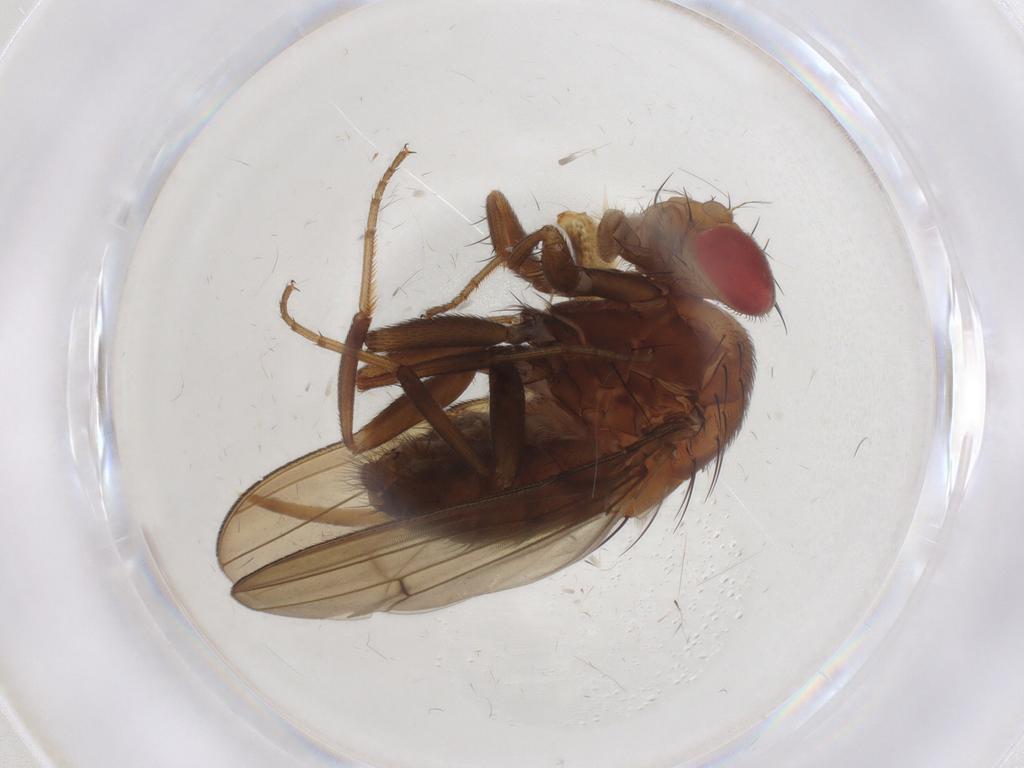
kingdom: Animalia
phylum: Arthropoda
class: Insecta
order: Diptera
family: Drosophilidae
